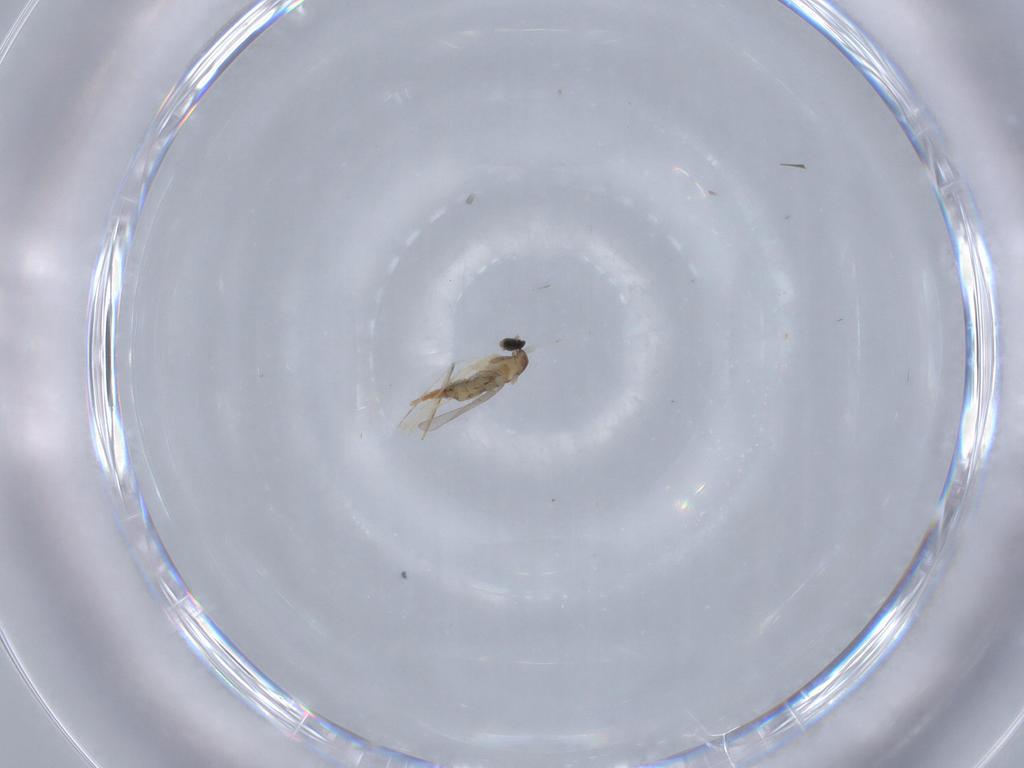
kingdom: Animalia
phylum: Arthropoda
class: Insecta
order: Diptera
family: Cecidomyiidae
